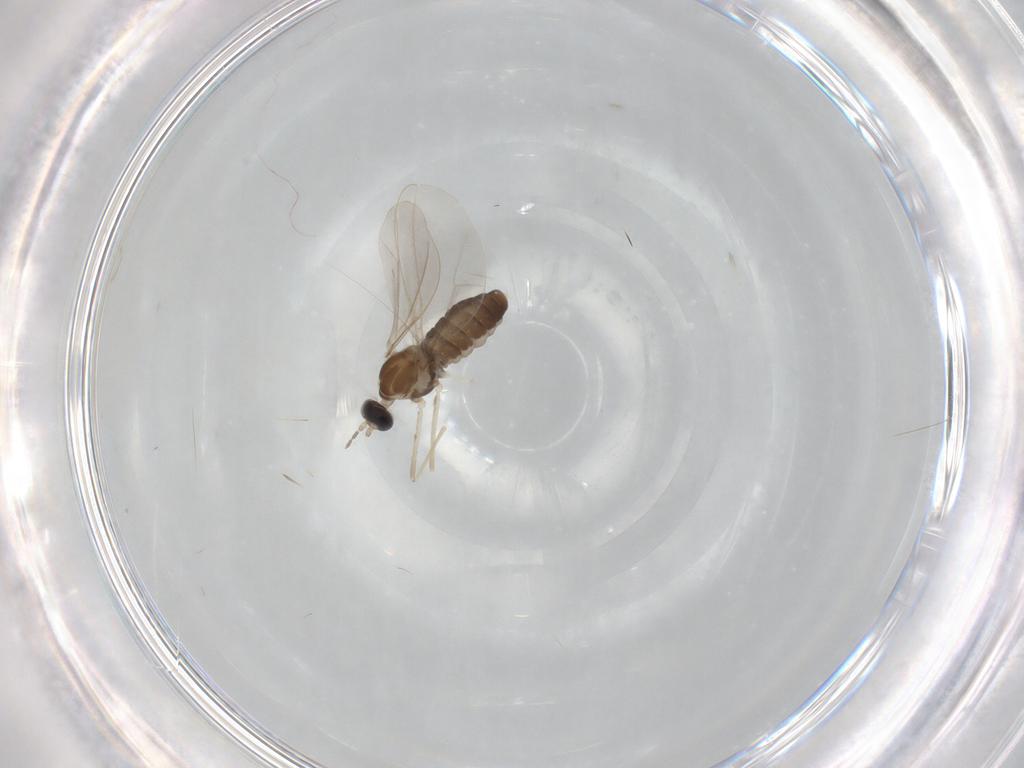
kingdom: Animalia
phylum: Arthropoda
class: Insecta
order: Diptera
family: Cecidomyiidae
